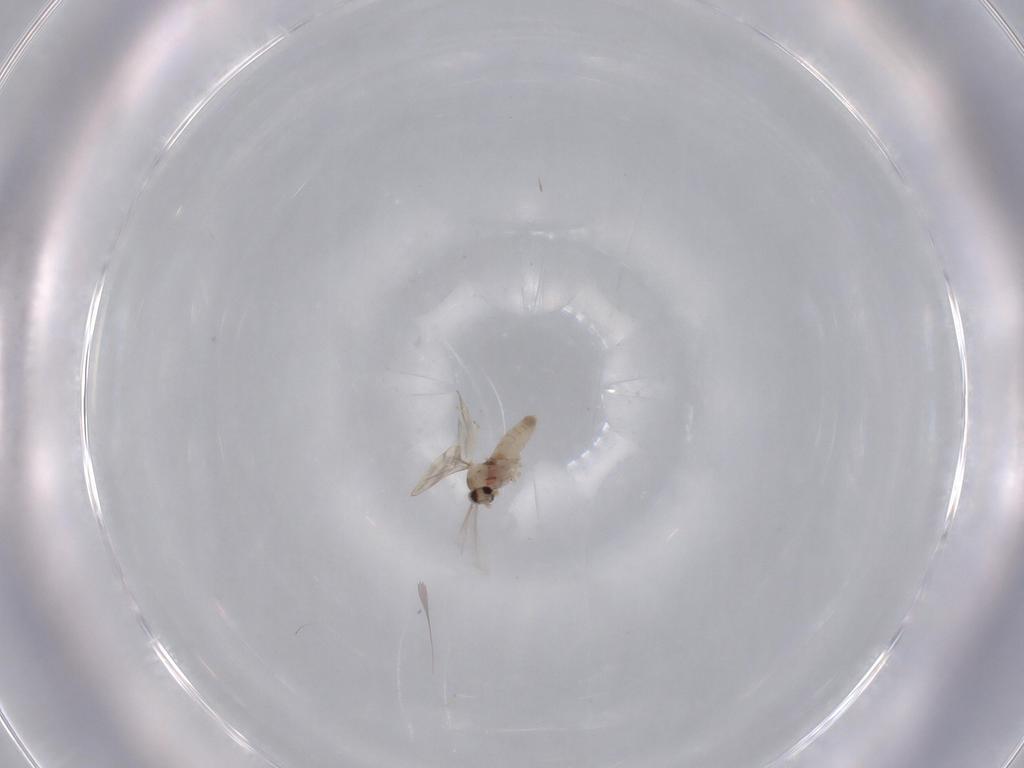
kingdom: Animalia
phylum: Arthropoda
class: Insecta
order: Diptera
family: Cecidomyiidae
